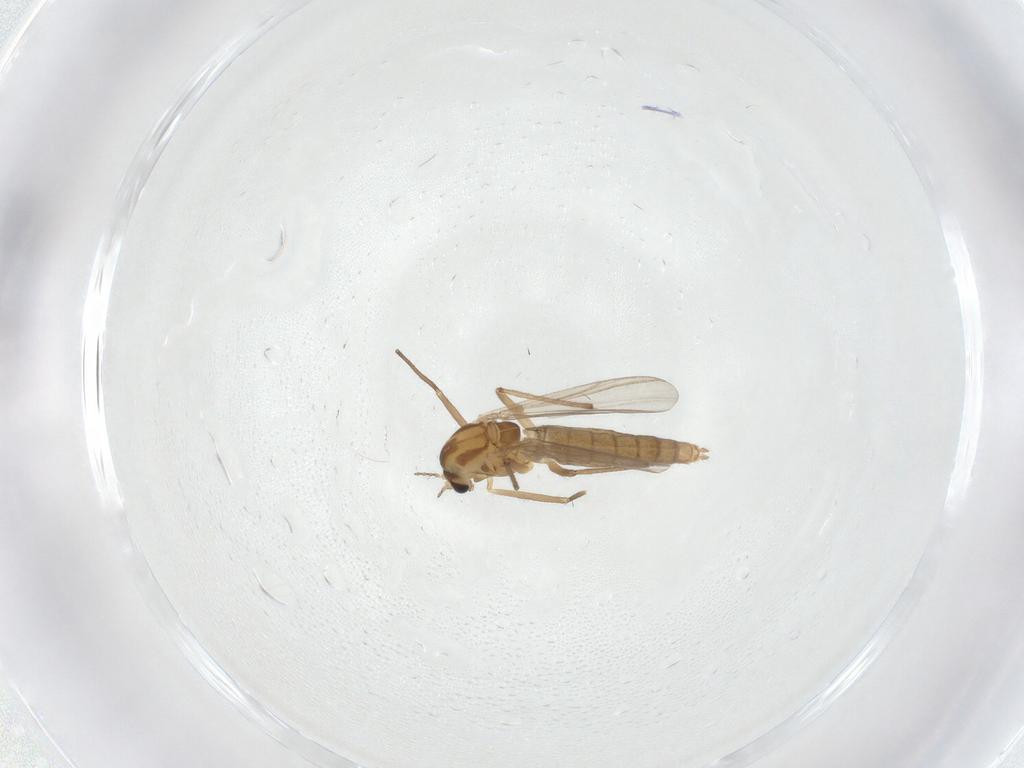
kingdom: Animalia
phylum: Arthropoda
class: Insecta
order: Diptera
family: Chironomidae
